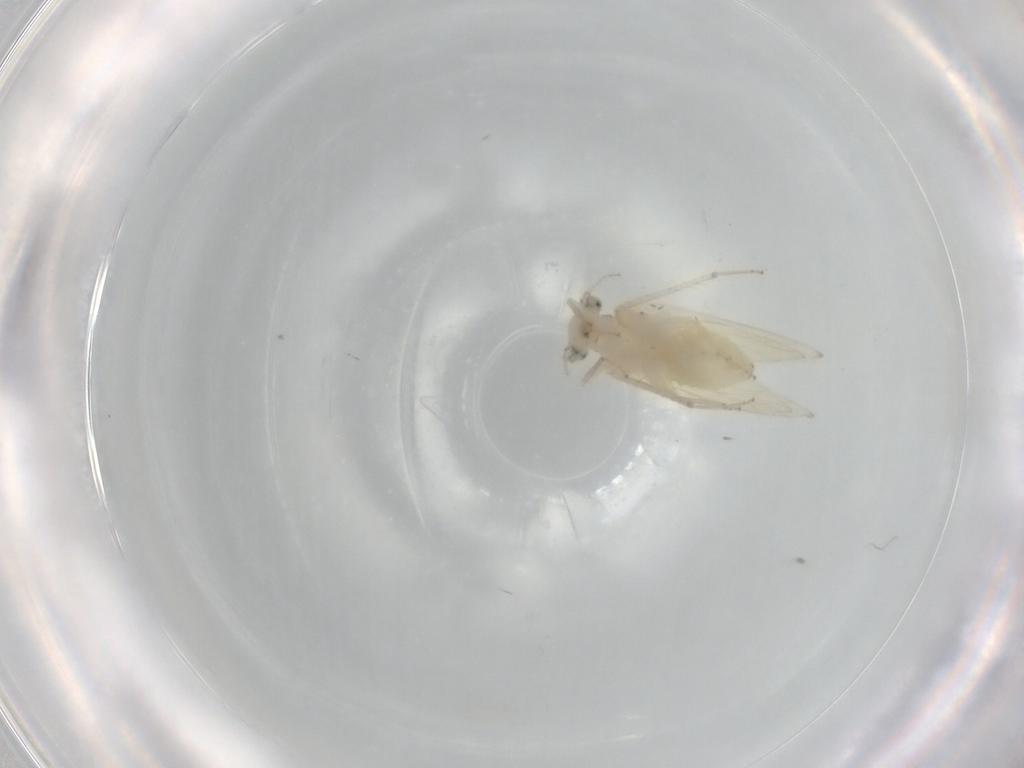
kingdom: Animalia
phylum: Arthropoda
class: Insecta
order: Psocodea
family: Lepidopsocidae
